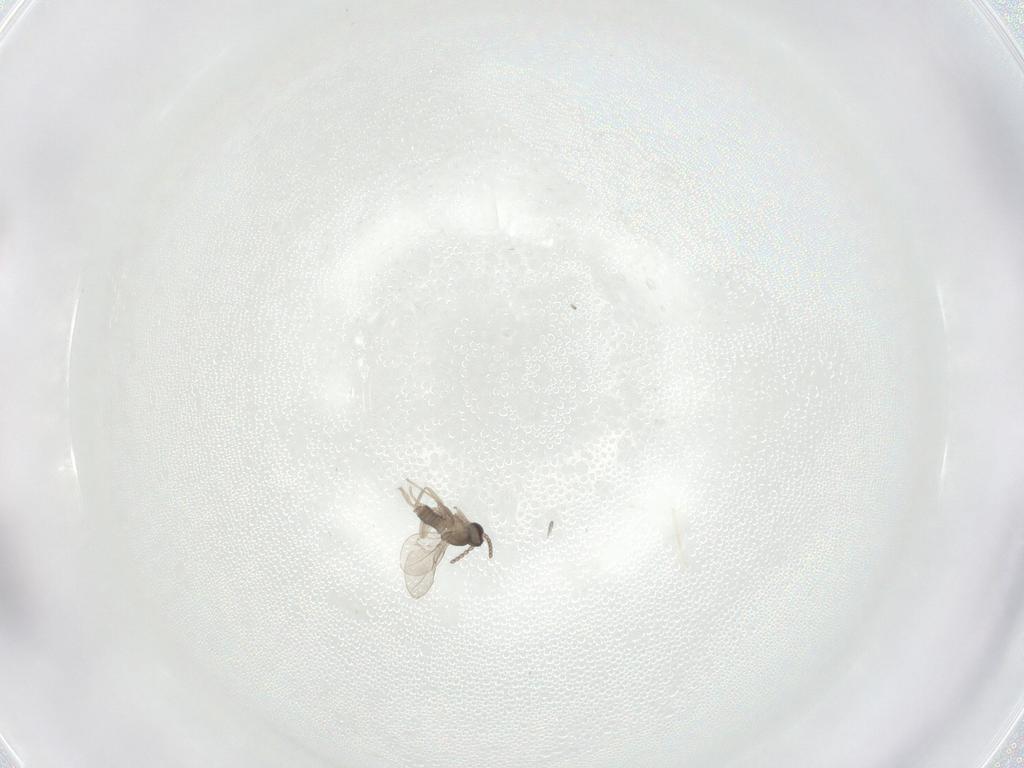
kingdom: Animalia
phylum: Arthropoda
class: Insecta
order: Diptera
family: Cecidomyiidae
